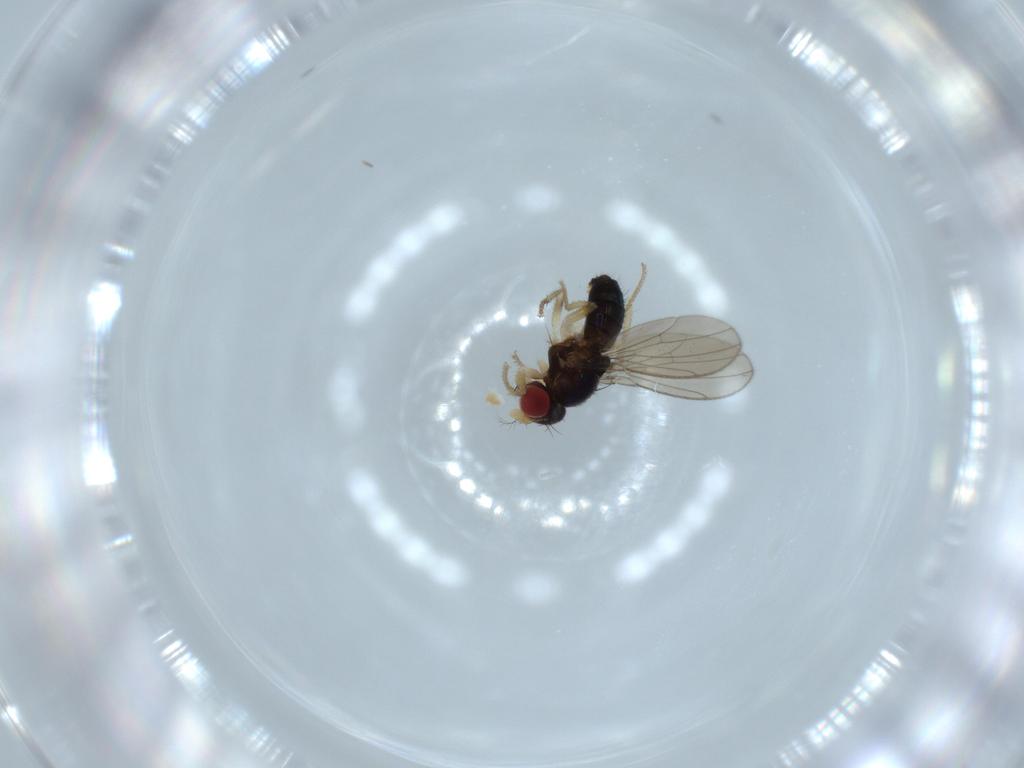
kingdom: Animalia
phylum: Arthropoda
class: Insecta
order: Diptera
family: Drosophilidae
